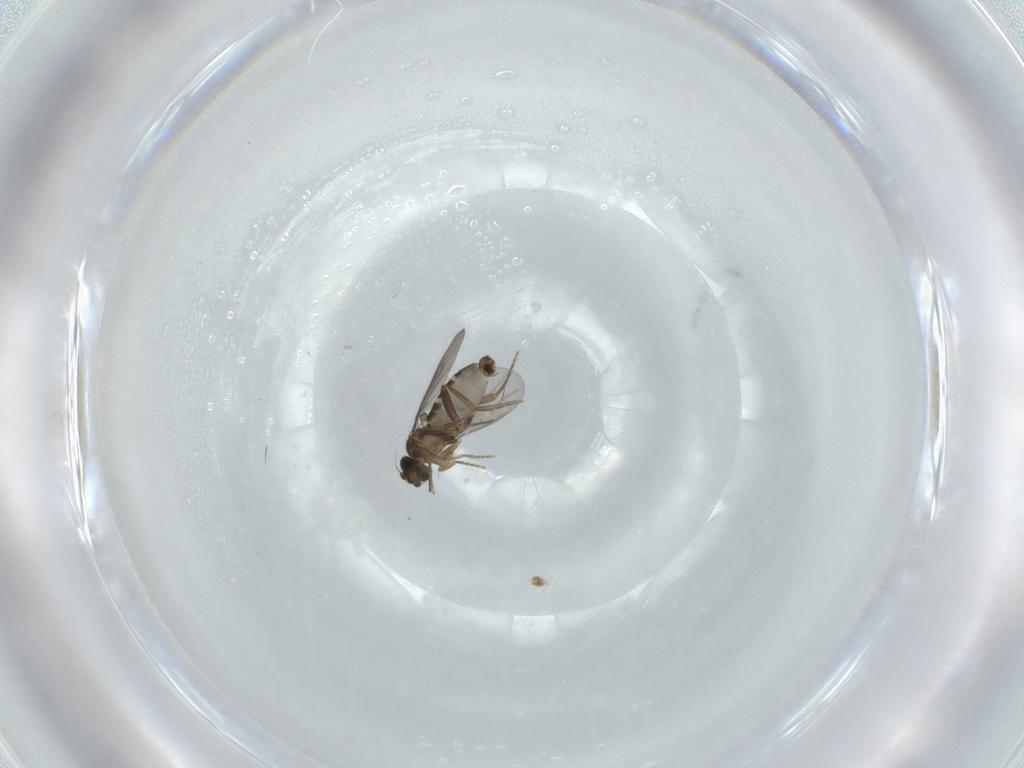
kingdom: Animalia
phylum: Arthropoda
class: Insecta
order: Diptera
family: Chironomidae
